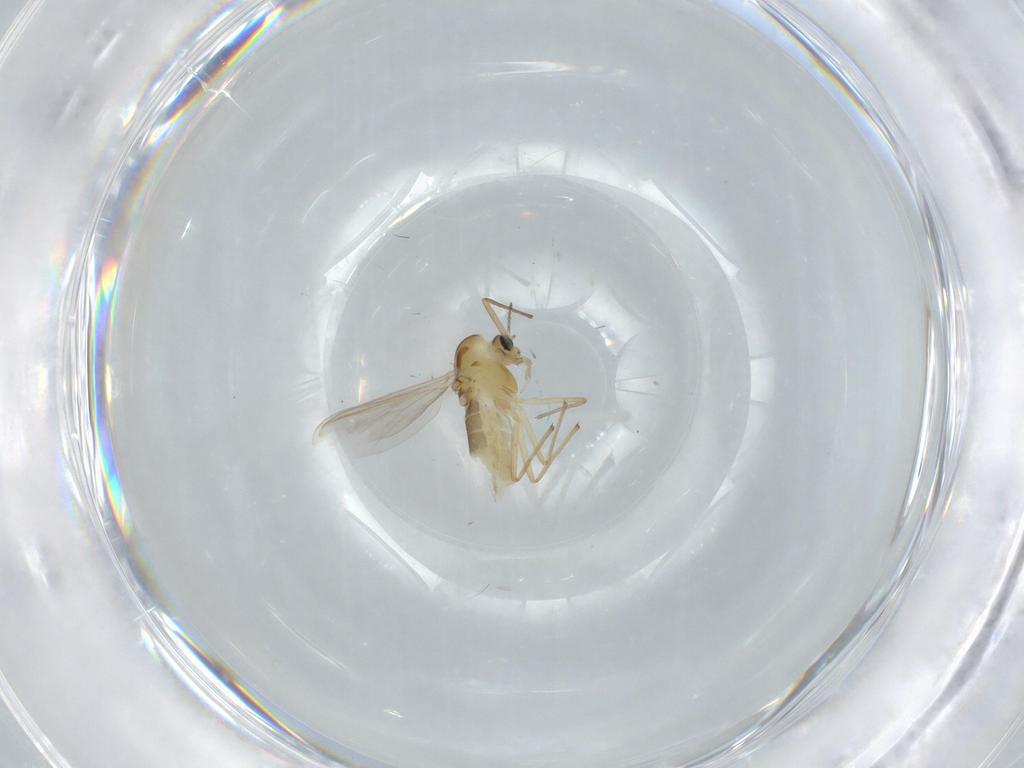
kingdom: Animalia
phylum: Arthropoda
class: Insecta
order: Diptera
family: Chironomidae
